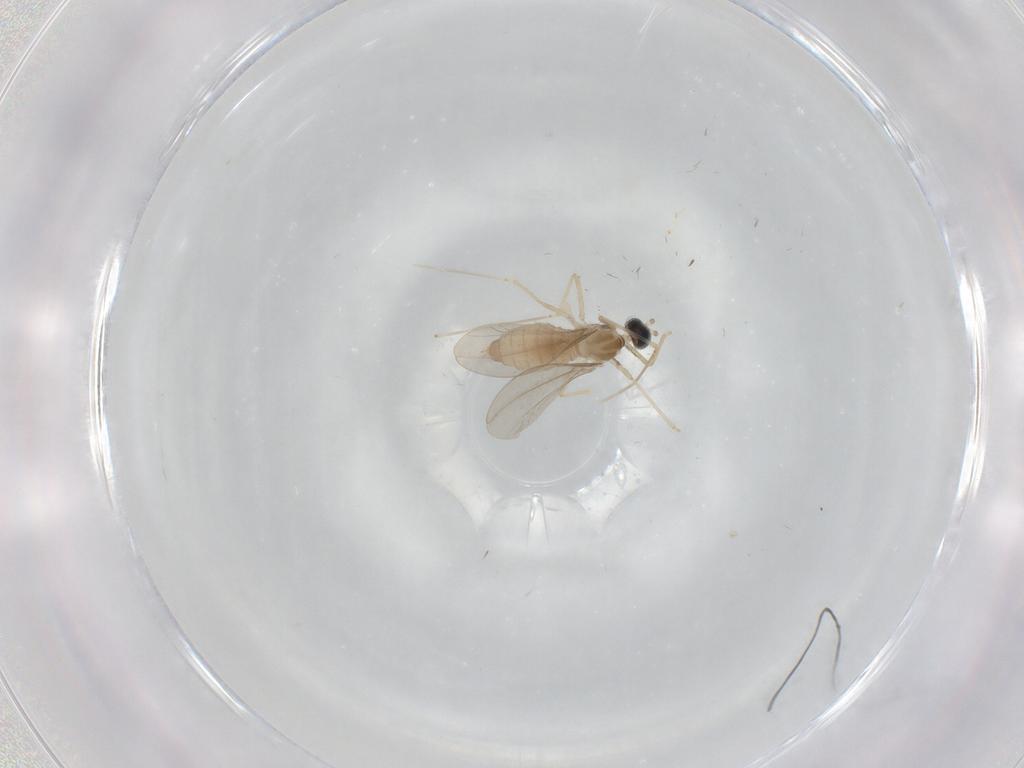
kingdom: Animalia
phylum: Arthropoda
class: Insecta
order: Diptera
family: Cecidomyiidae
